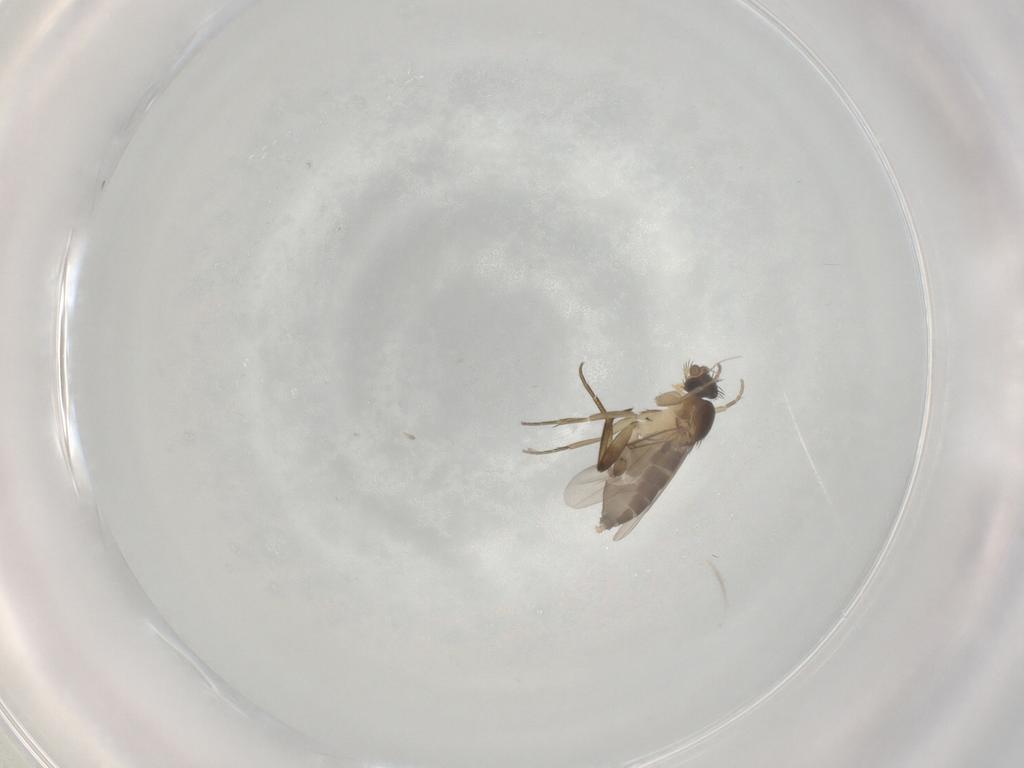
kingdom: Animalia
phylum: Arthropoda
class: Insecta
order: Diptera
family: Phoridae
